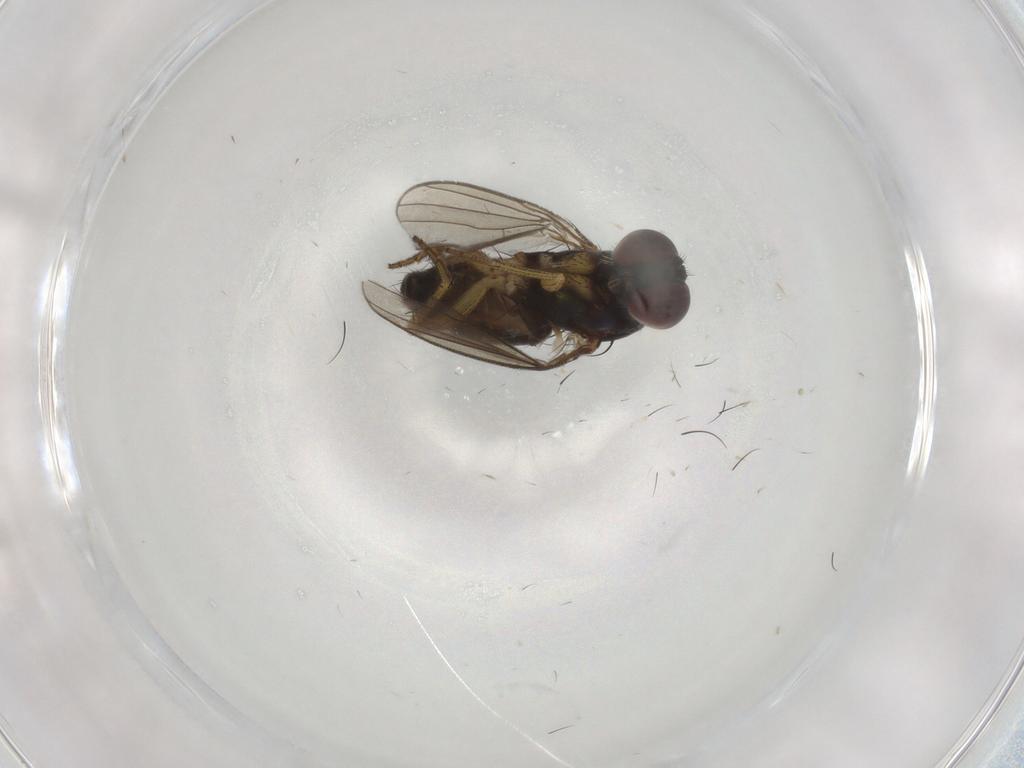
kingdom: Animalia
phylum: Arthropoda
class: Insecta
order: Diptera
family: Dolichopodidae
